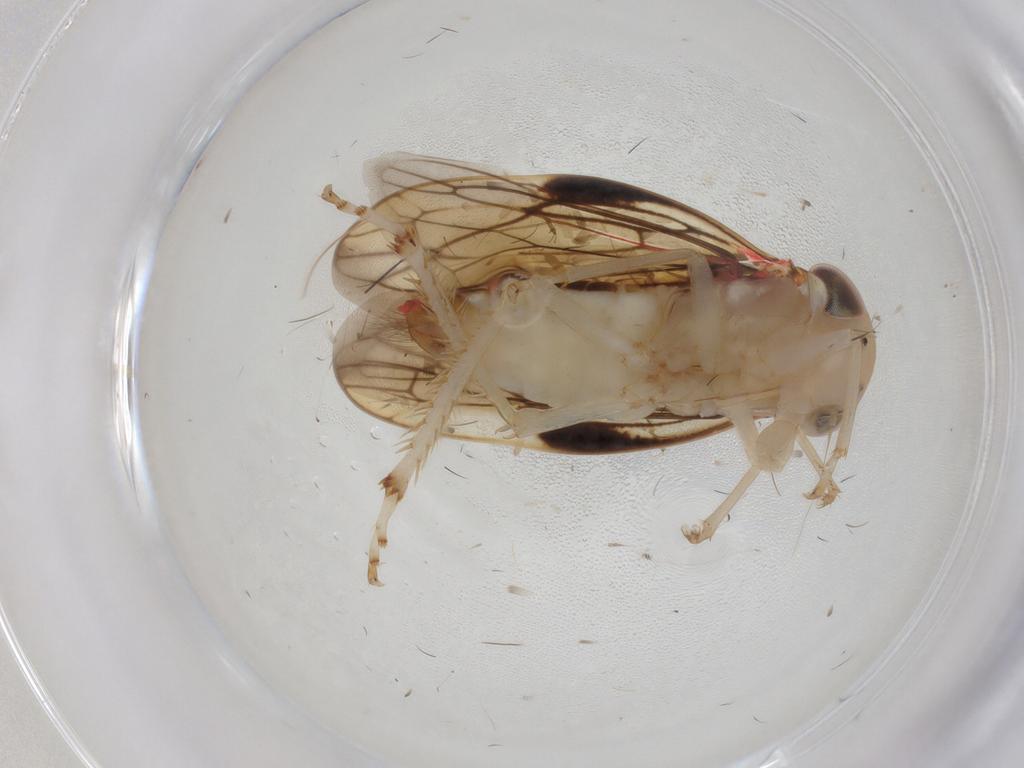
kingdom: Animalia
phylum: Arthropoda
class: Insecta
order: Hemiptera
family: Cicadellidae
